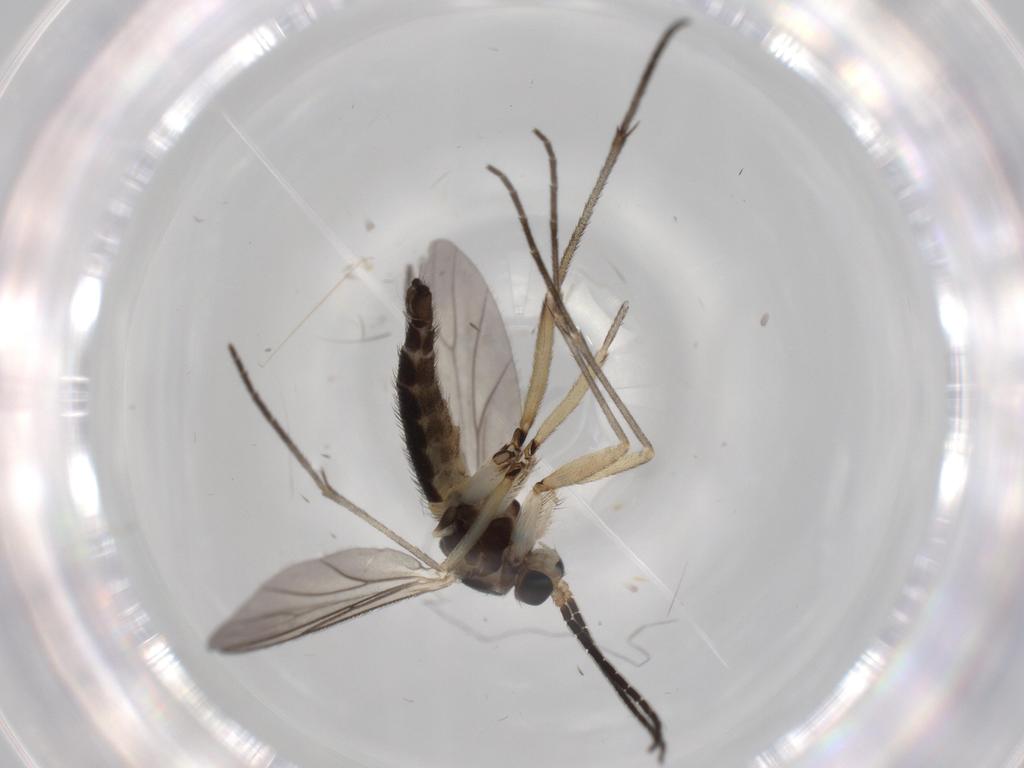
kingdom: Animalia
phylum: Arthropoda
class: Insecta
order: Diptera
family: Sciaridae
